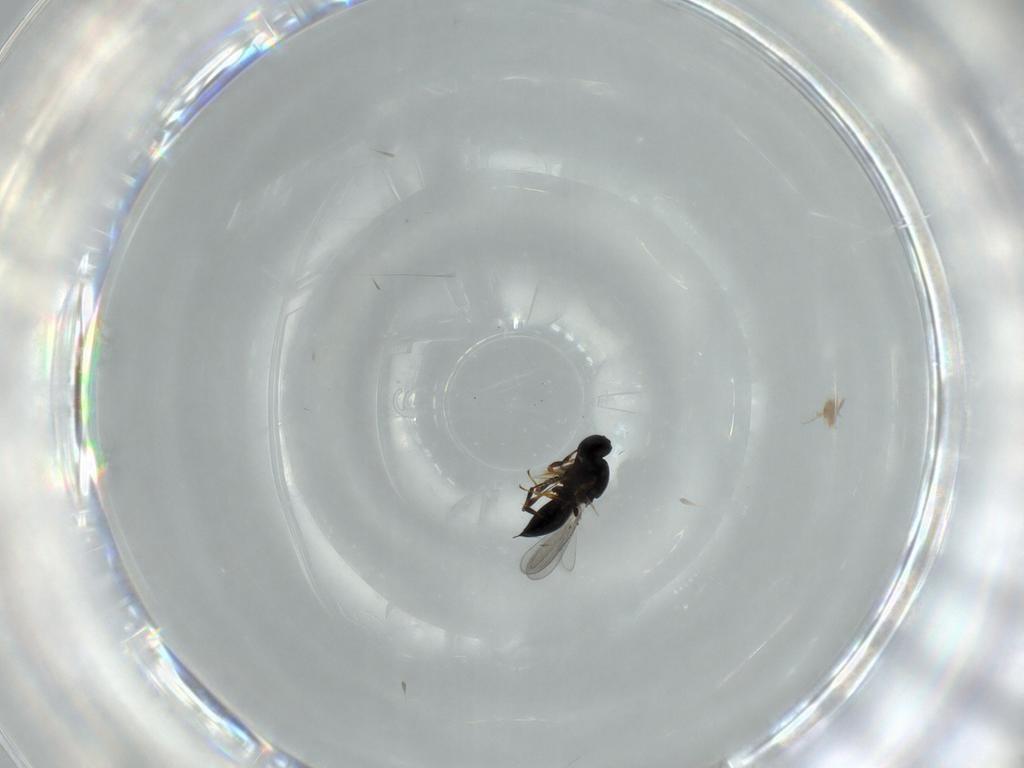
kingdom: Animalia
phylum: Arthropoda
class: Insecta
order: Hymenoptera
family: Platygastridae
